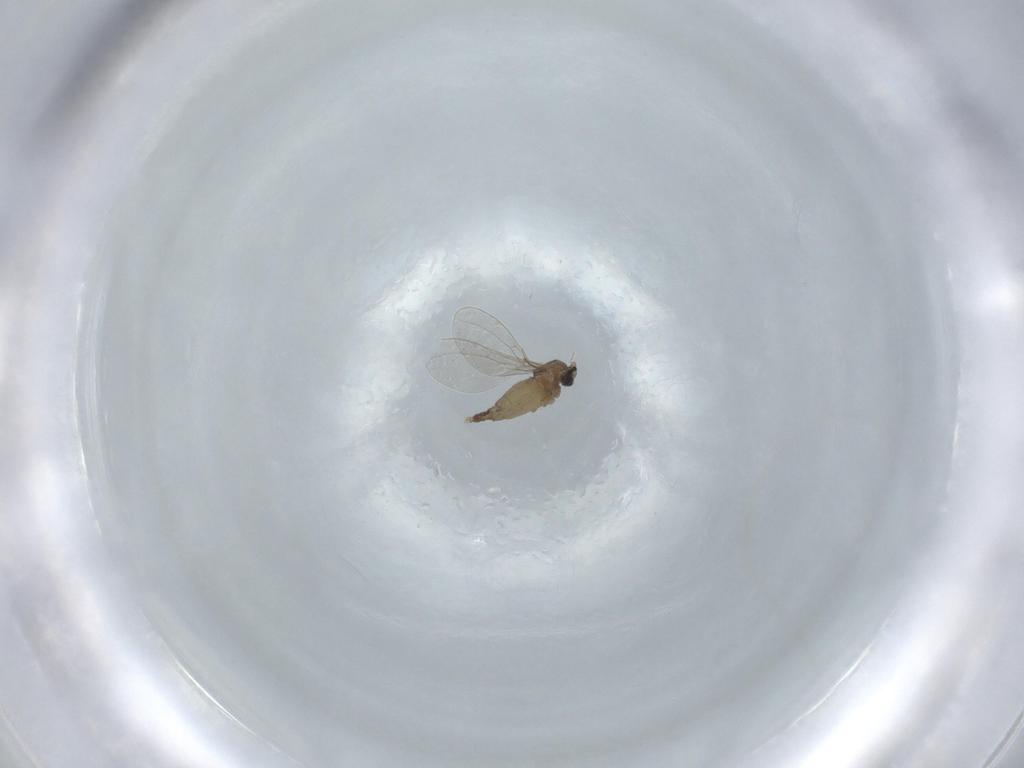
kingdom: Animalia
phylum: Arthropoda
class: Insecta
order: Diptera
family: Cecidomyiidae
